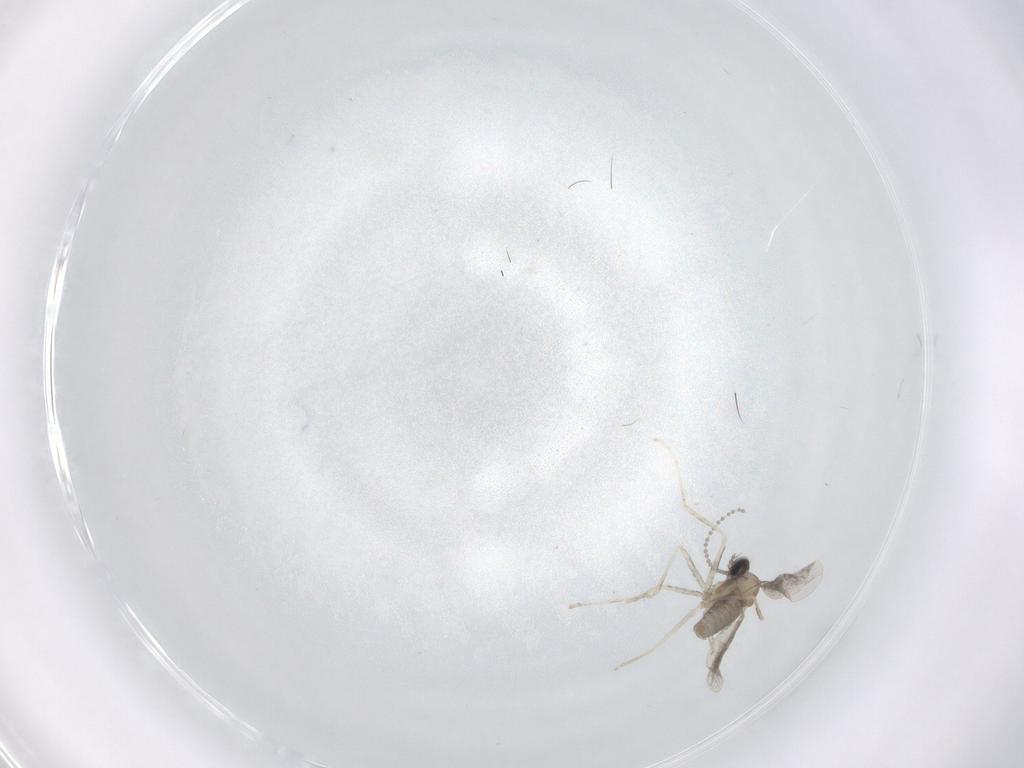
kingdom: Animalia
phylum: Arthropoda
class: Insecta
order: Diptera
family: Cecidomyiidae
